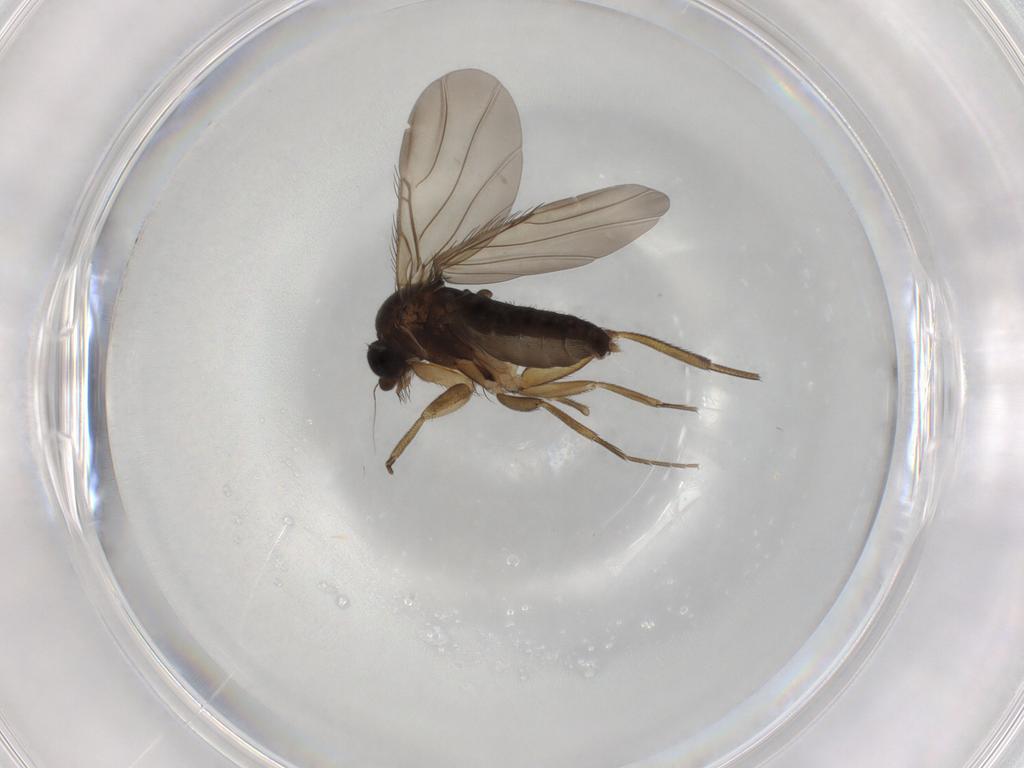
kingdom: Animalia
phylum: Arthropoda
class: Insecta
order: Diptera
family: Phoridae
